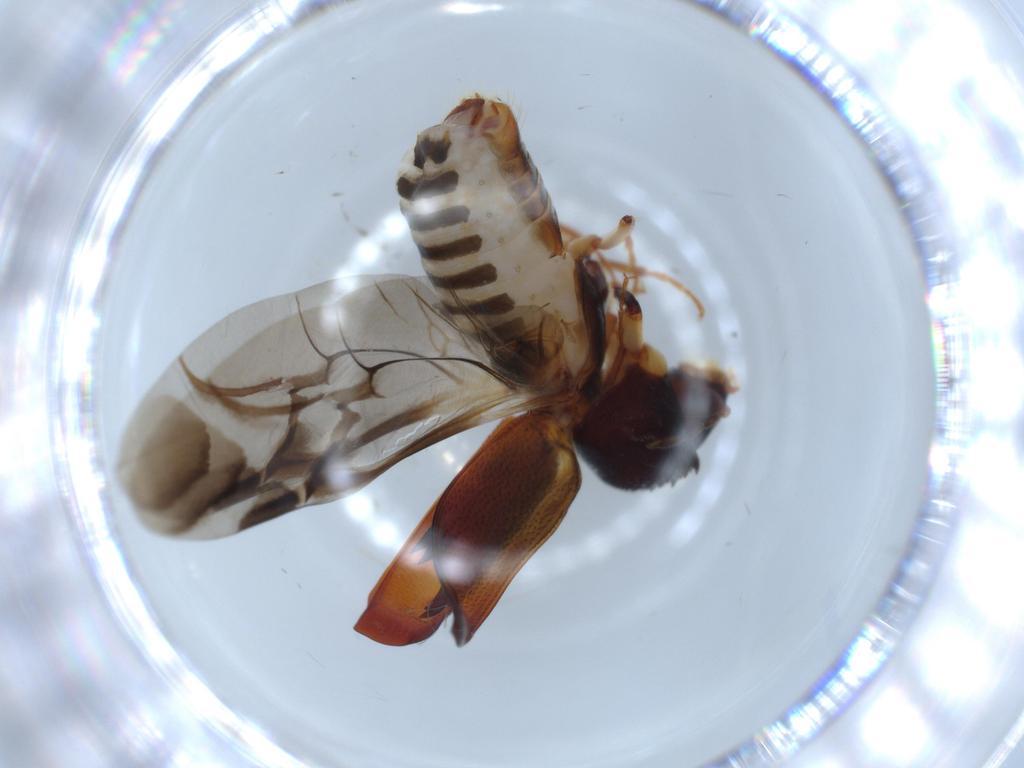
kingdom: Animalia
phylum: Arthropoda
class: Insecta
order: Coleoptera
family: Bostrichidae
